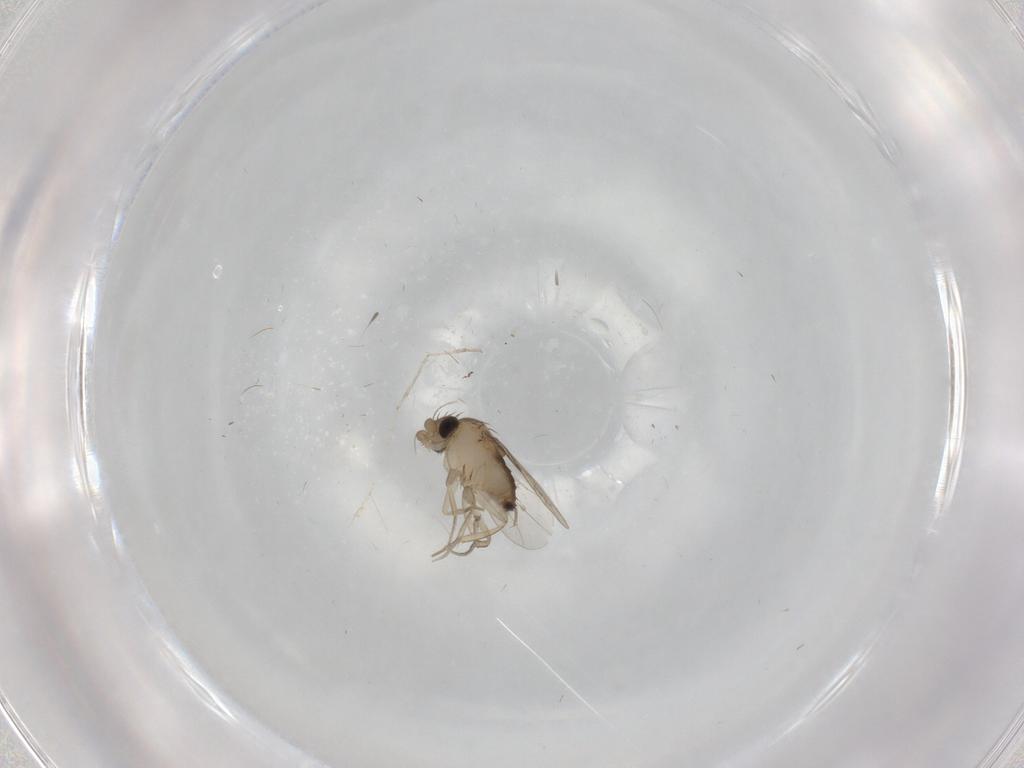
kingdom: Animalia
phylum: Arthropoda
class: Insecta
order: Diptera
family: Phoridae
